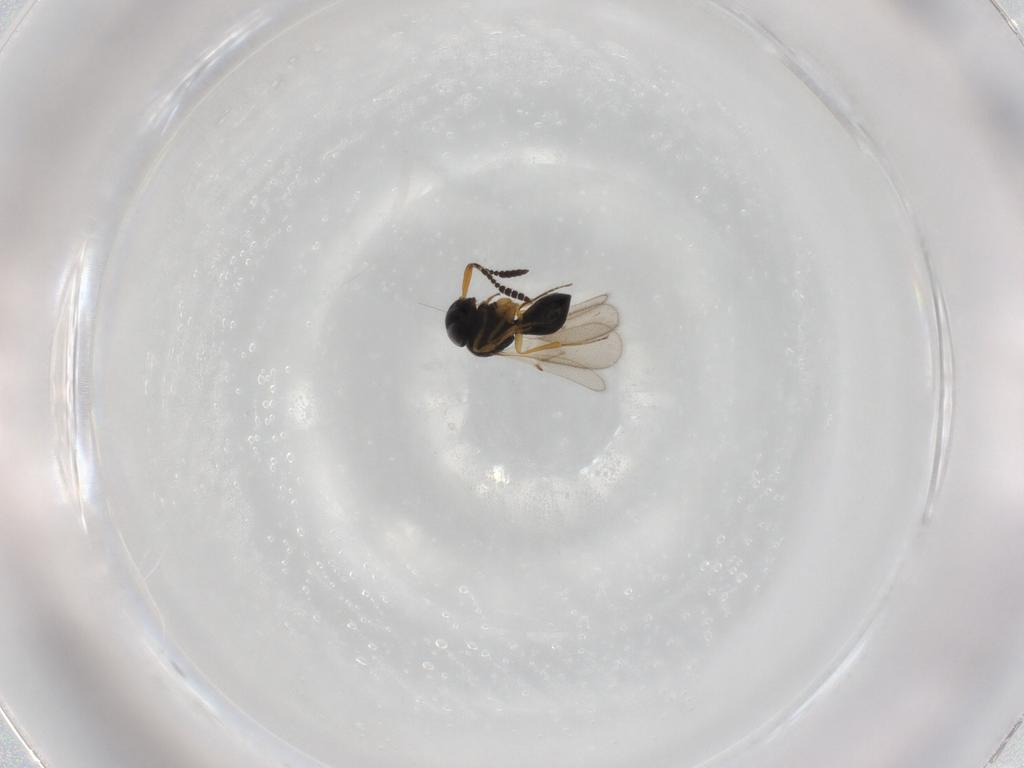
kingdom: Animalia
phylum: Arthropoda
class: Insecta
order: Hymenoptera
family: Scelionidae
